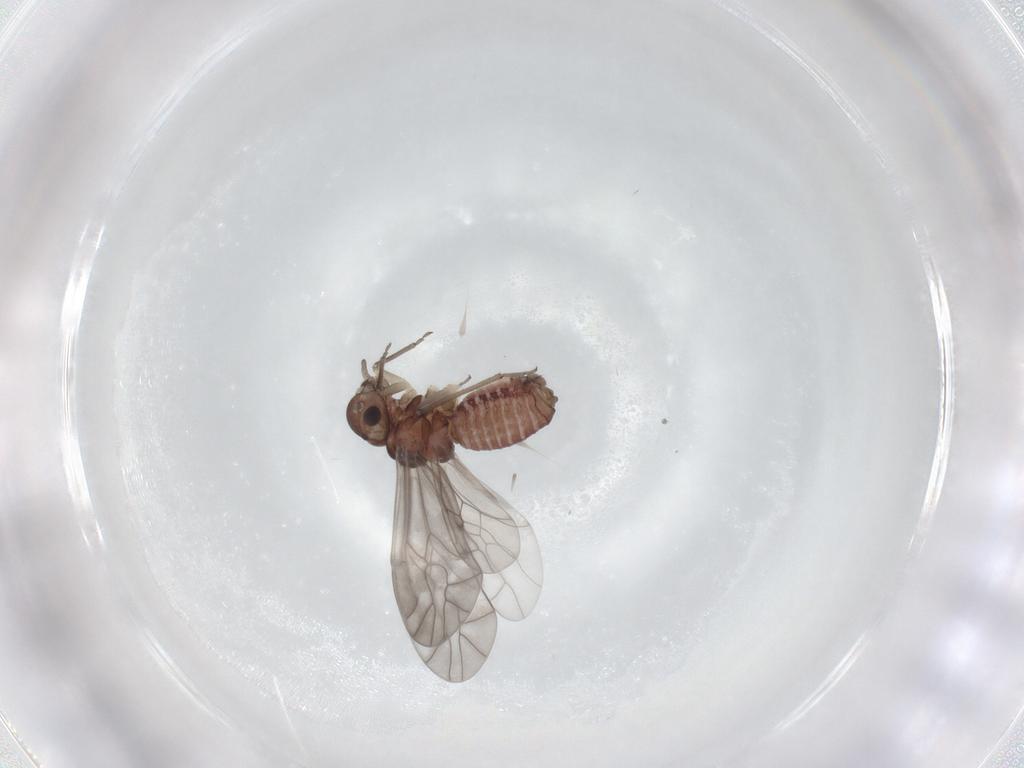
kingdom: Animalia
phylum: Arthropoda
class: Insecta
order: Psocodea
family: Peripsocidae
